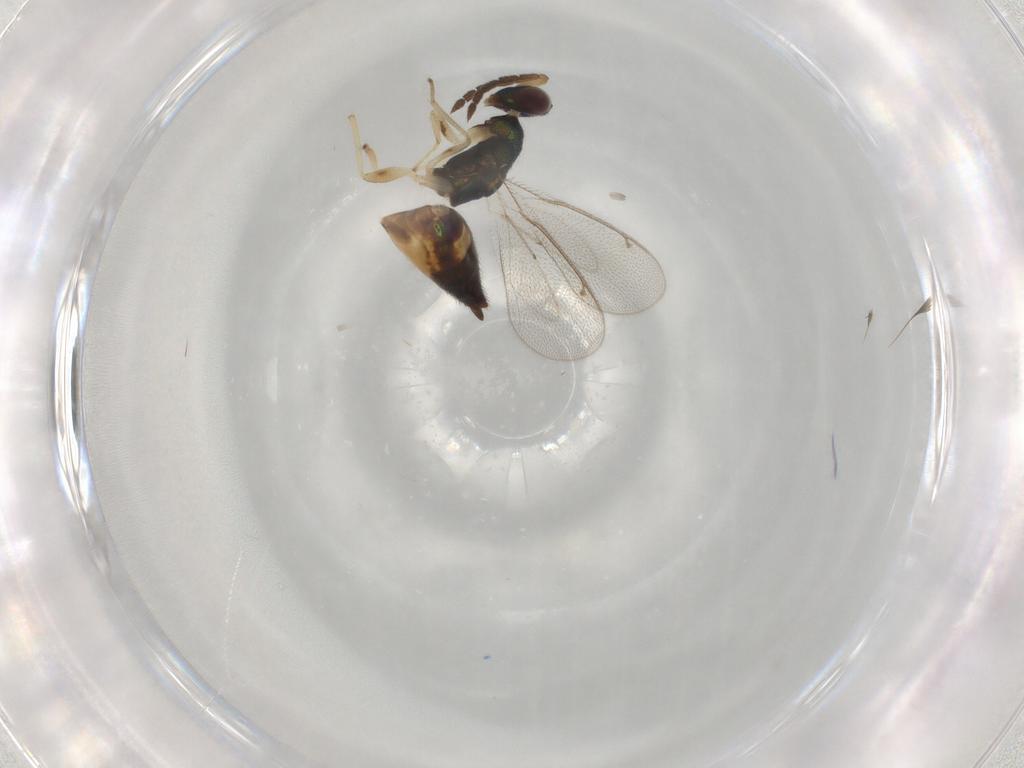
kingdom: Animalia
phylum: Arthropoda
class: Insecta
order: Hymenoptera
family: Eulophidae
